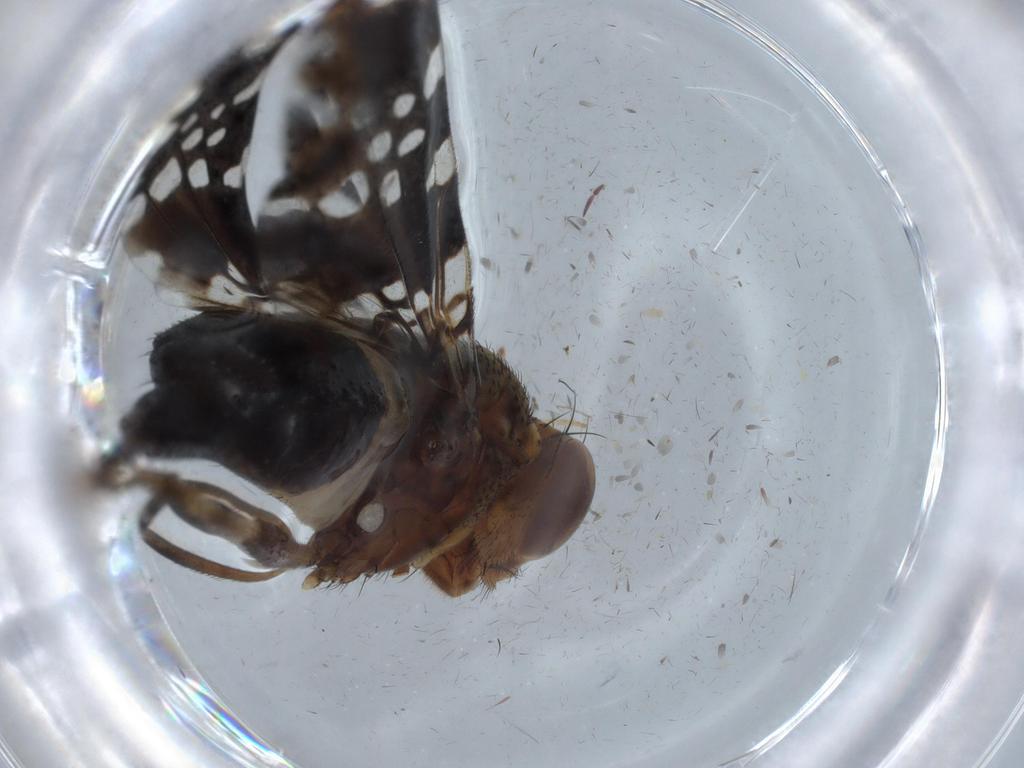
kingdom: Animalia
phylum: Arthropoda
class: Insecta
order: Diptera
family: Ulidiidae
